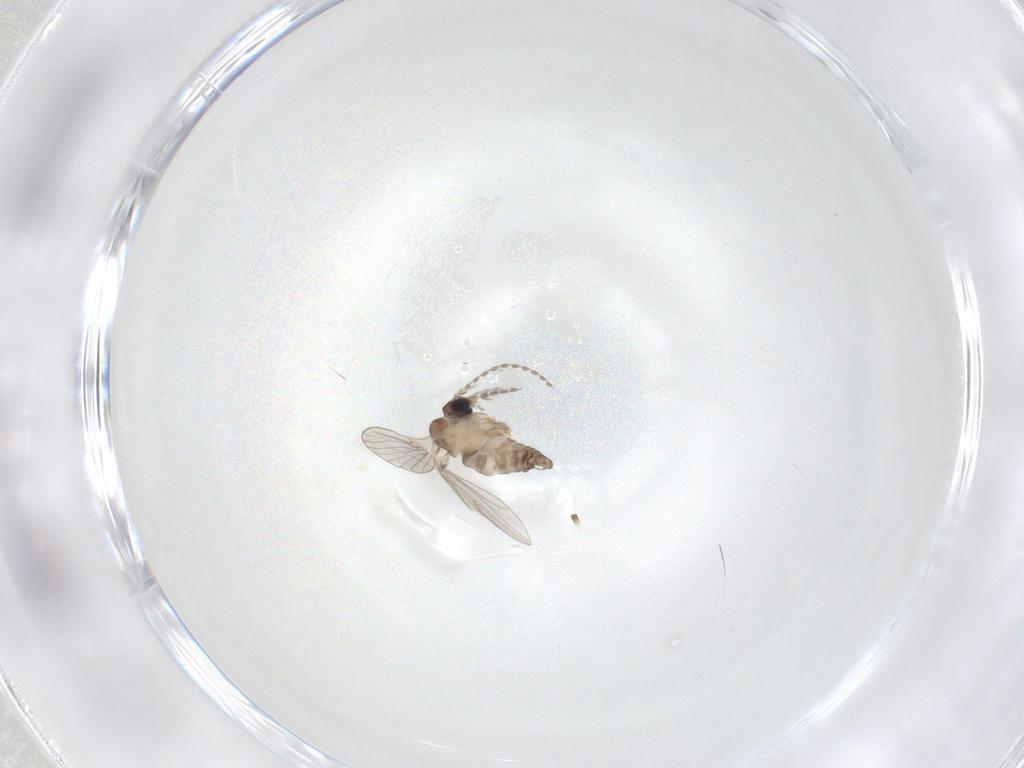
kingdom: Animalia
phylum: Arthropoda
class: Insecta
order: Diptera
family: Psychodidae
